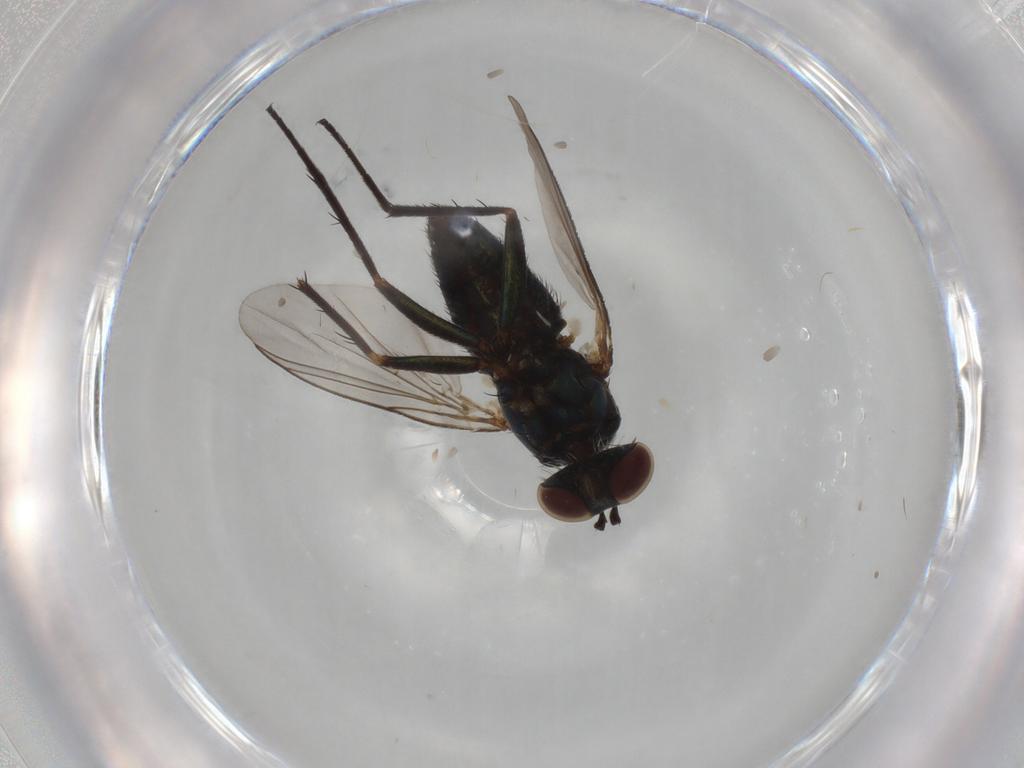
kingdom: Animalia
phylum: Arthropoda
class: Insecta
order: Diptera
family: Dolichopodidae
